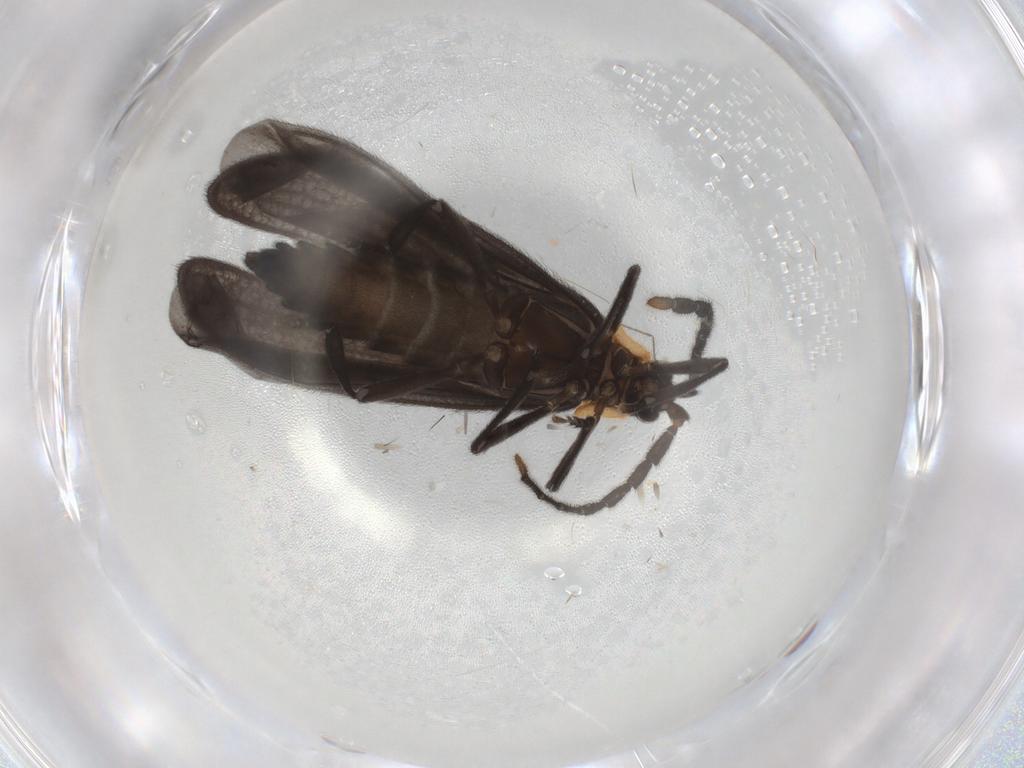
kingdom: Animalia
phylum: Arthropoda
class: Insecta
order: Coleoptera
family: Lycidae
